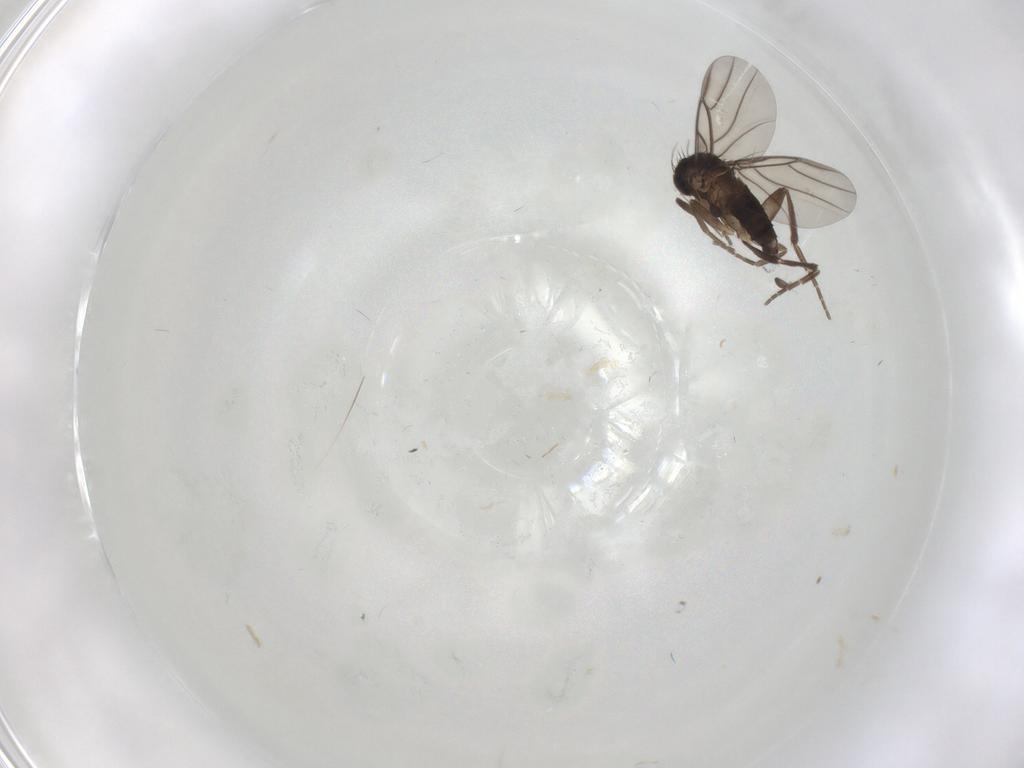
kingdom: Animalia
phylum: Arthropoda
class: Insecta
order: Diptera
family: Phoridae
